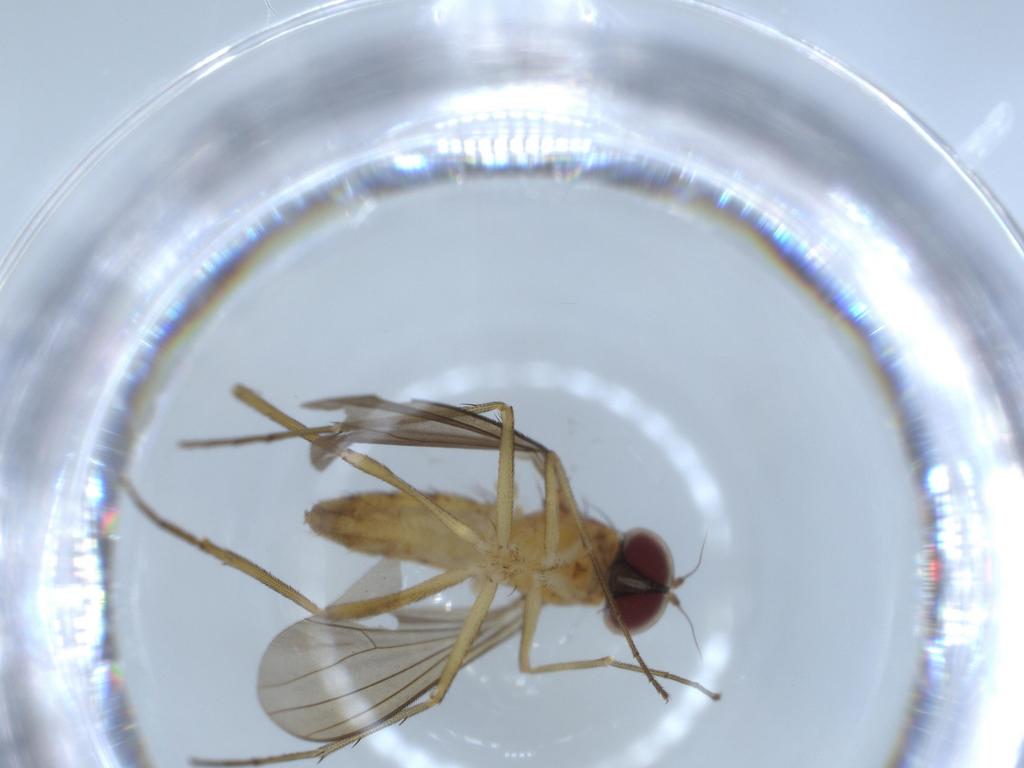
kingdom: Animalia
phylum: Arthropoda
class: Insecta
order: Diptera
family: Dolichopodidae
